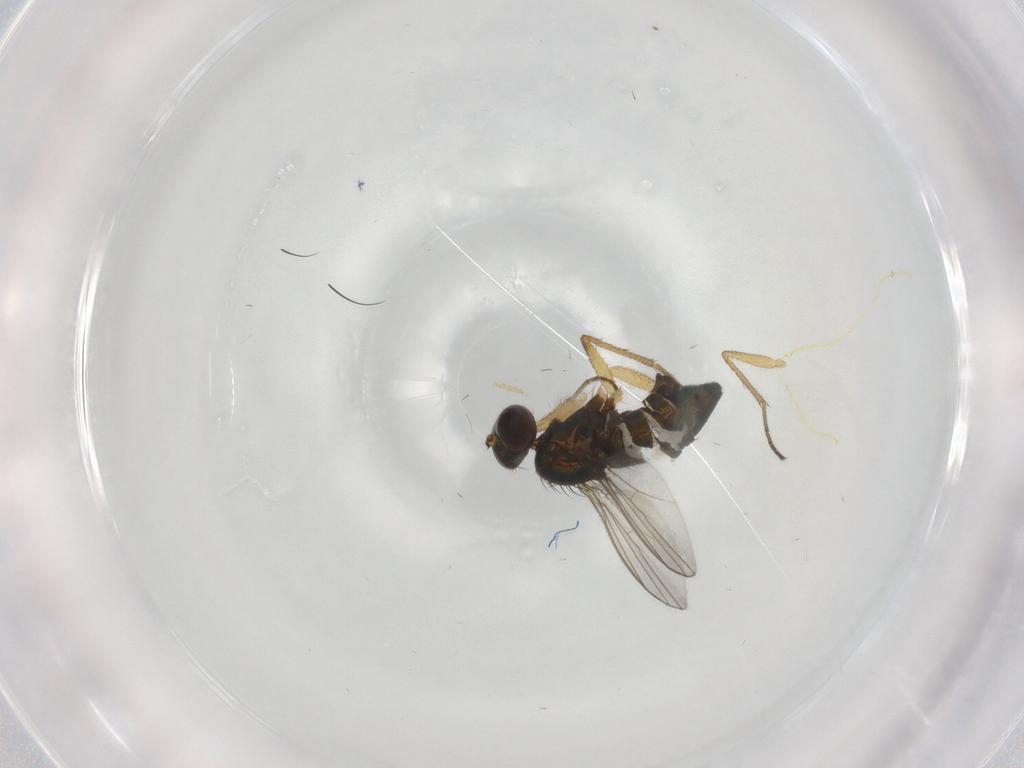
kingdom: Animalia
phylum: Arthropoda
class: Insecta
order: Diptera
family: Dolichopodidae
